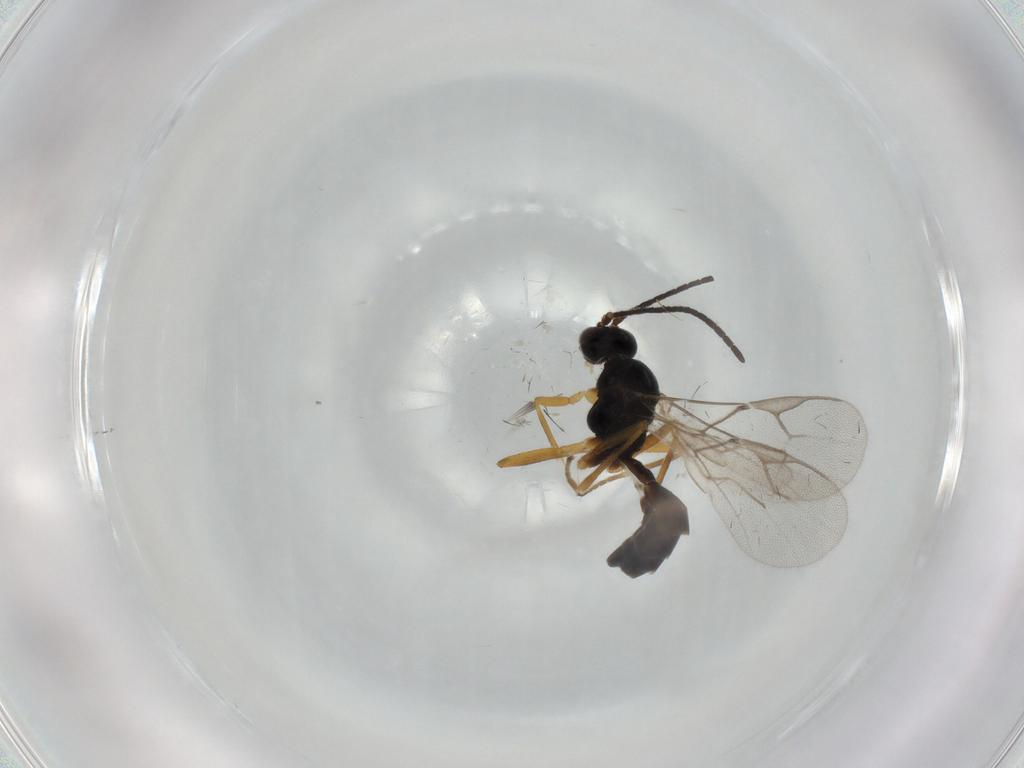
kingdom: Animalia
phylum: Arthropoda
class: Insecta
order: Hymenoptera
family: Braconidae
